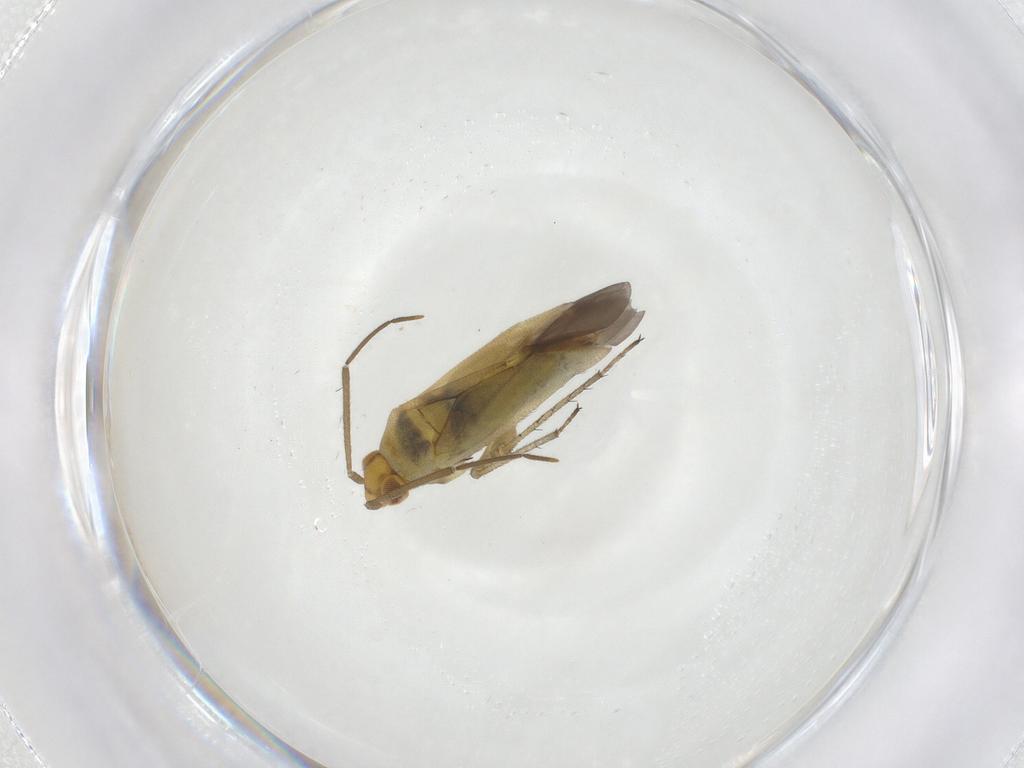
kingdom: Animalia
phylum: Arthropoda
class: Insecta
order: Hemiptera
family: Miridae
